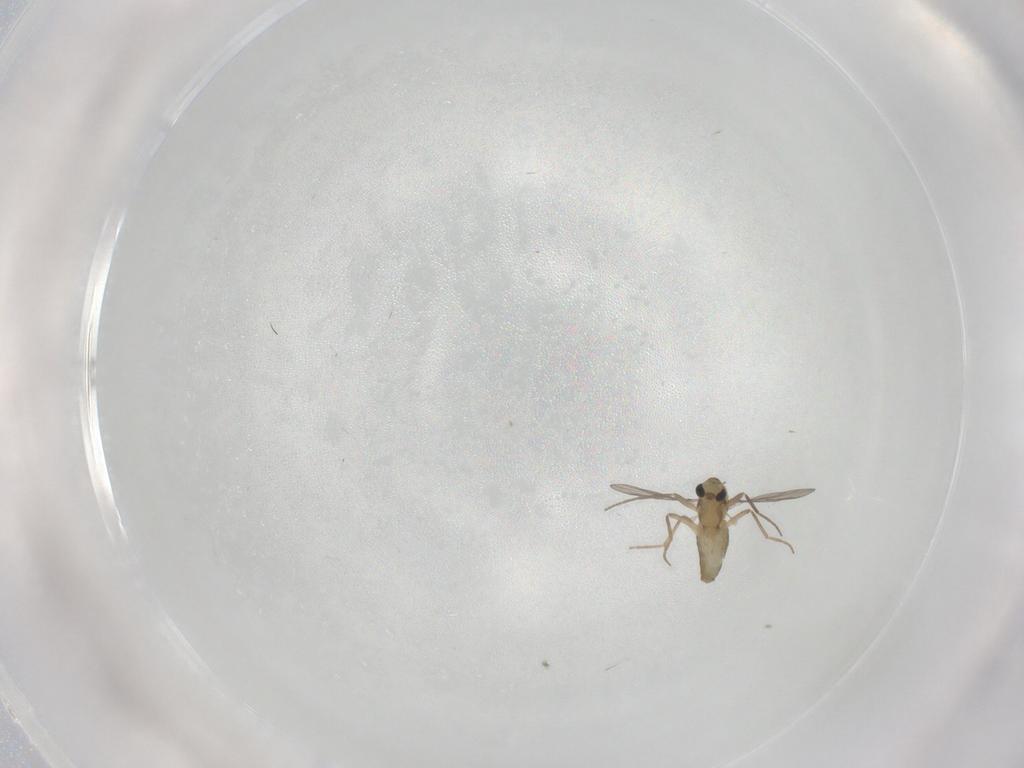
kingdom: Animalia
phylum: Arthropoda
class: Insecta
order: Diptera
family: Chironomidae
